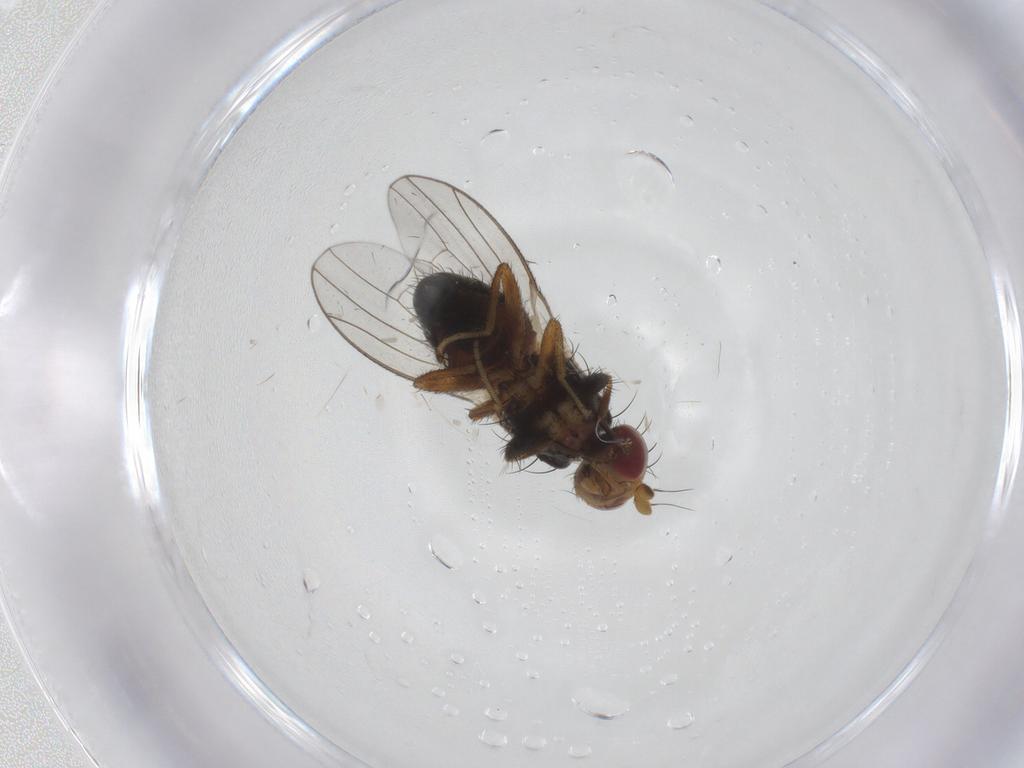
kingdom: Animalia
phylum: Arthropoda
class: Insecta
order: Diptera
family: Heleomyzidae
